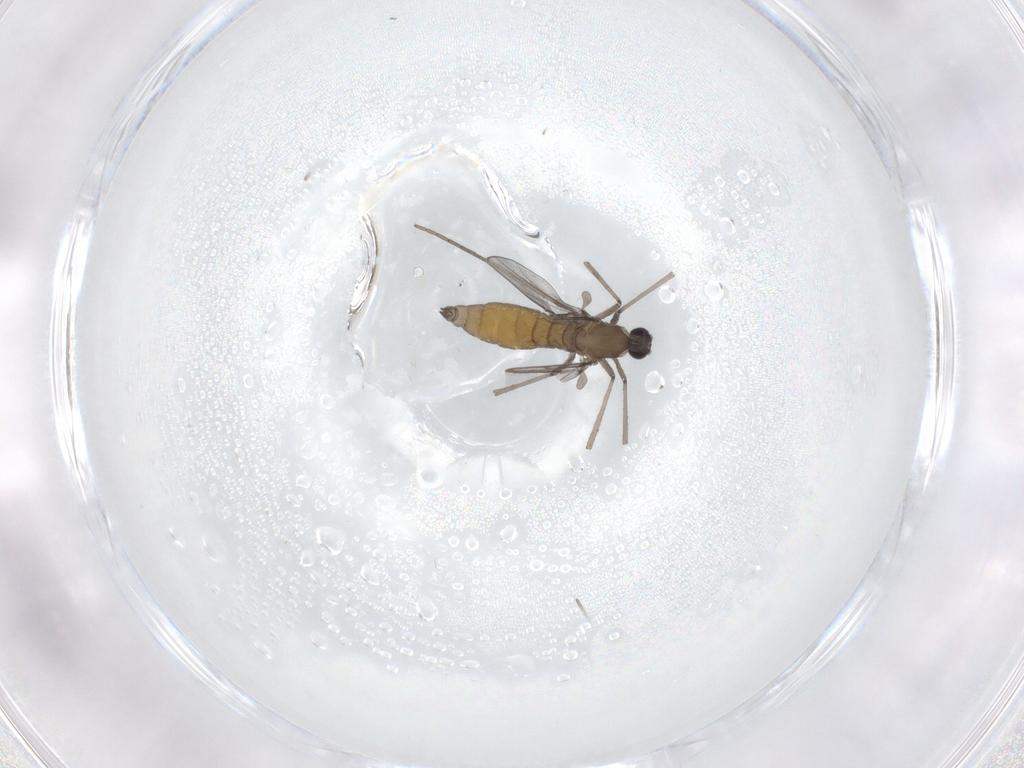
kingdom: Animalia
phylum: Arthropoda
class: Insecta
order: Diptera
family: Cecidomyiidae
